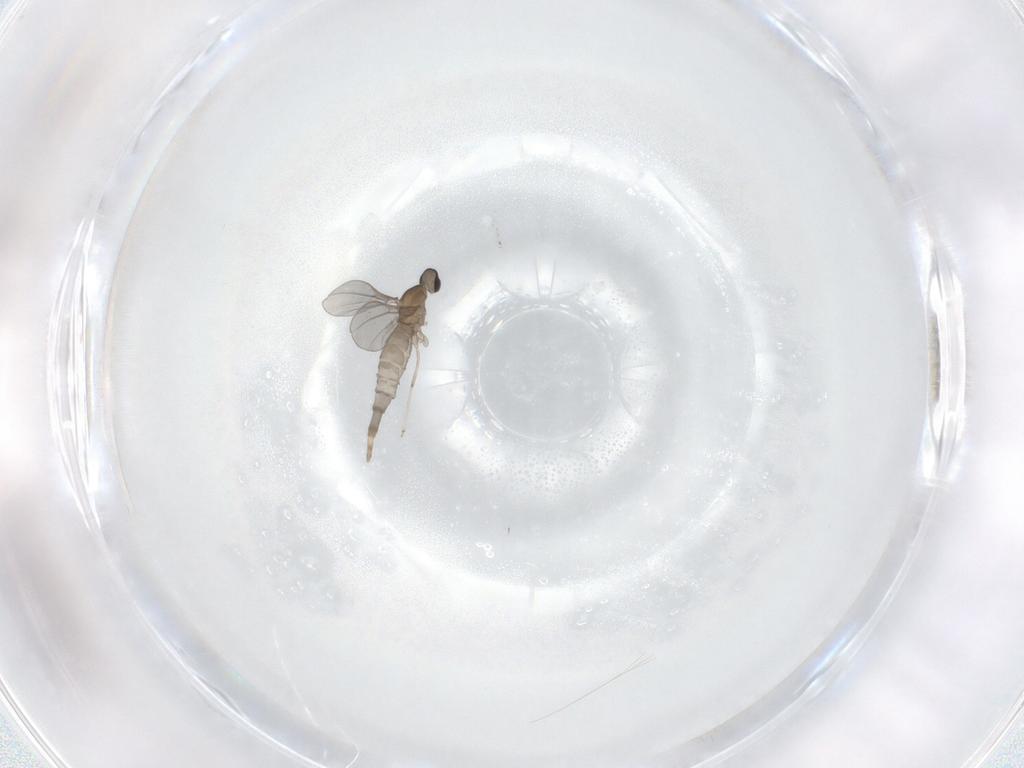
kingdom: Animalia
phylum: Arthropoda
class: Insecta
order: Diptera
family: Cecidomyiidae
